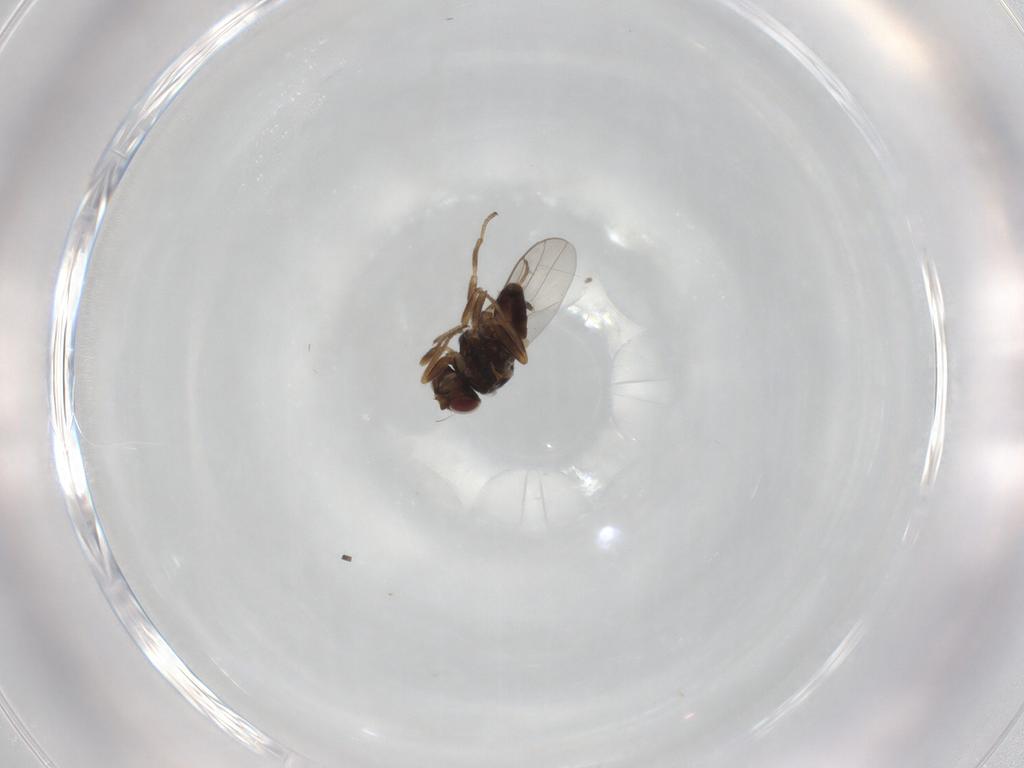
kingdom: Animalia
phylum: Arthropoda
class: Insecta
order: Diptera
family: Chloropidae
